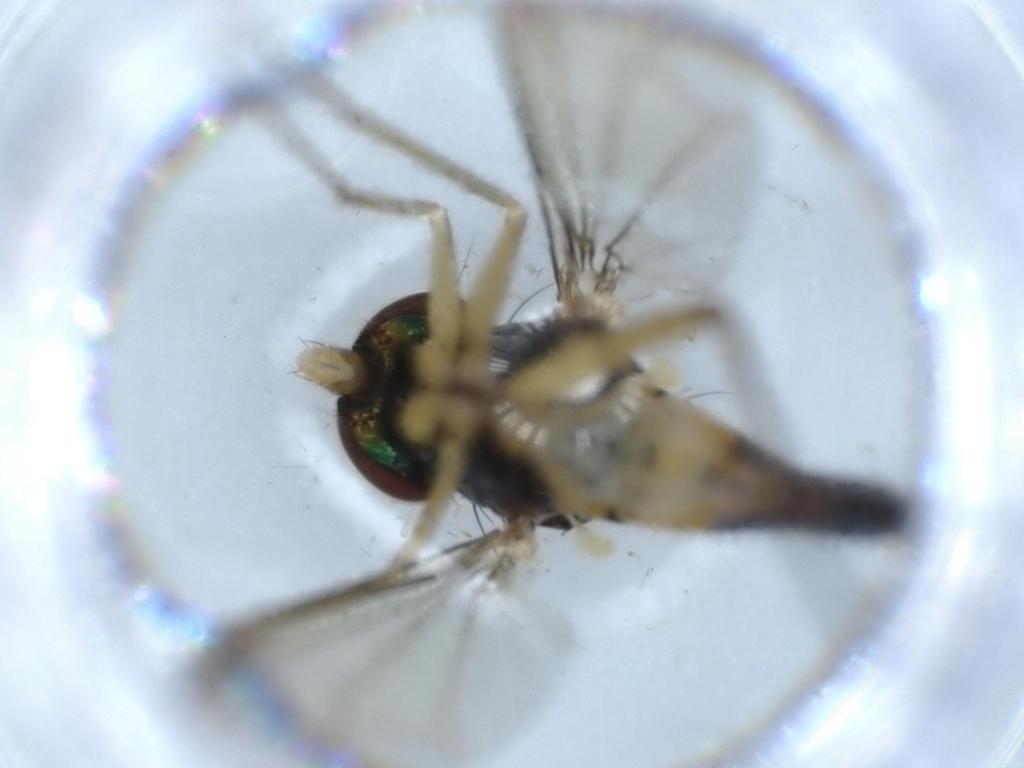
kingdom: Animalia
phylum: Arthropoda
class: Insecta
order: Diptera
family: Dolichopodidae
